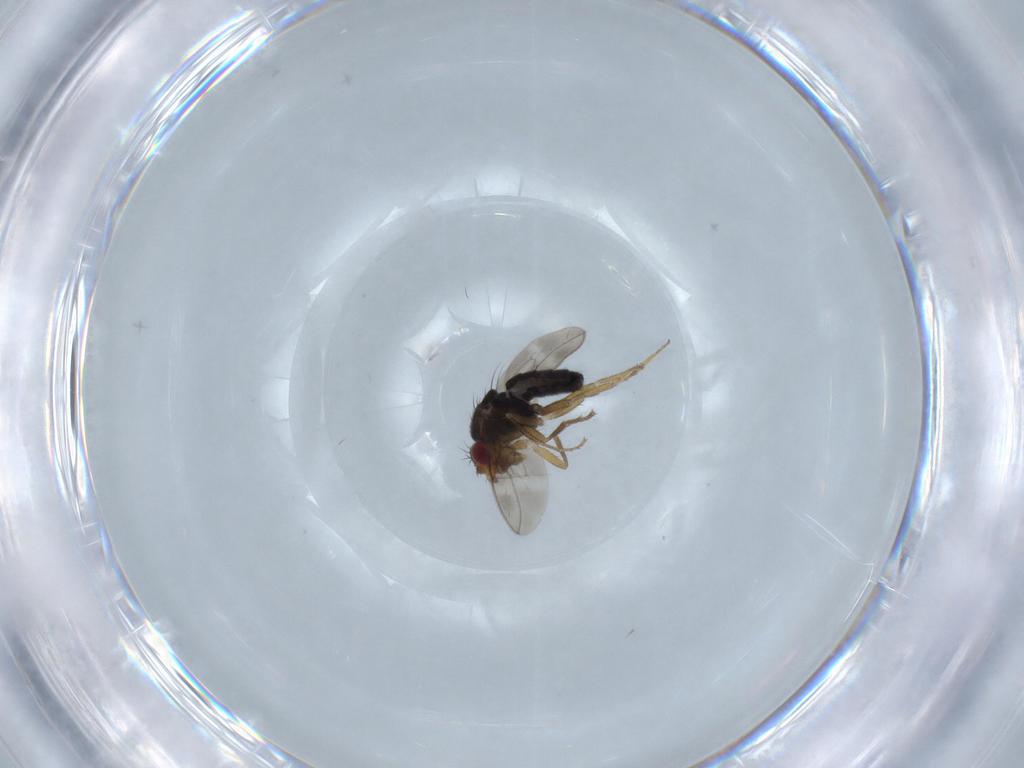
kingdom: Animalia
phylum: Arthropoda
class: Insecta
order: Diptera
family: Sphaeroceridae
